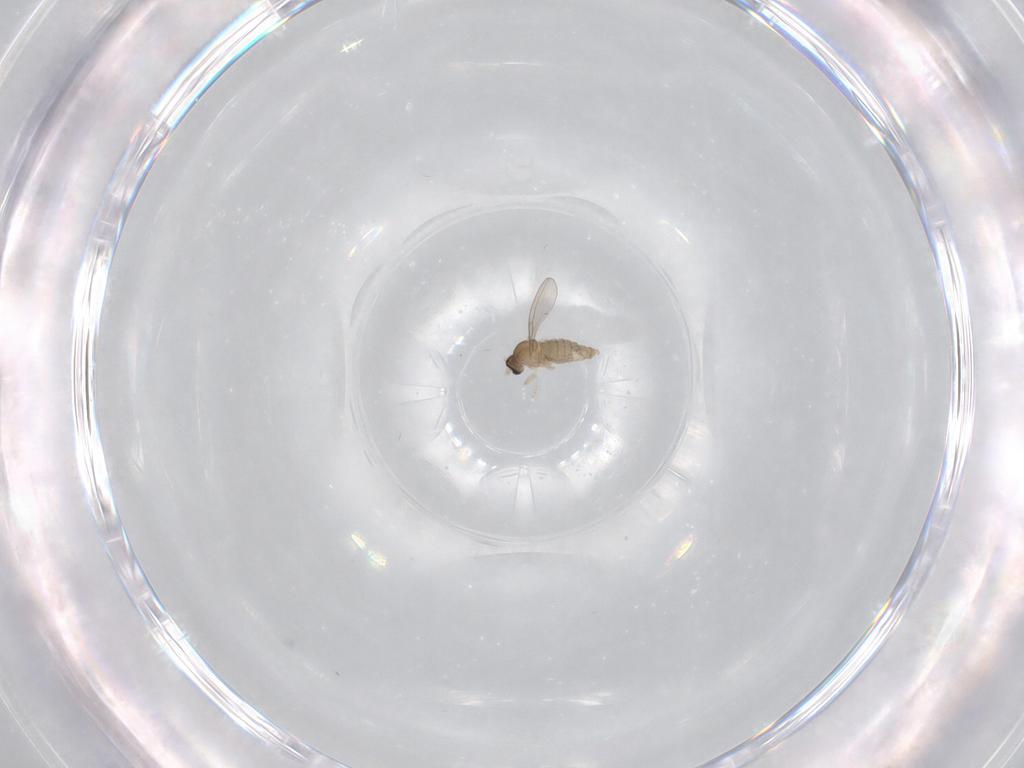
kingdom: Animalia
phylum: Arthropoda
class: Insecta
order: Diptera
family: Cecidomyiidae
